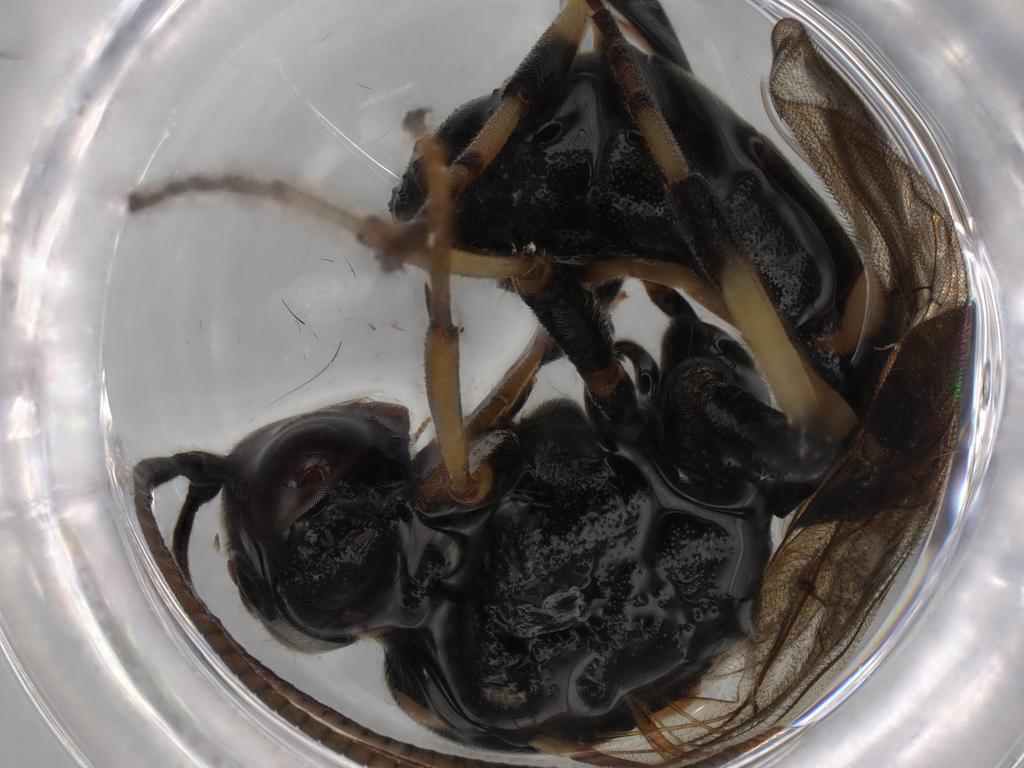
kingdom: Animalia
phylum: Arthropoda
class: Insecta
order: Hymenoptera
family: Ichneumonidae
